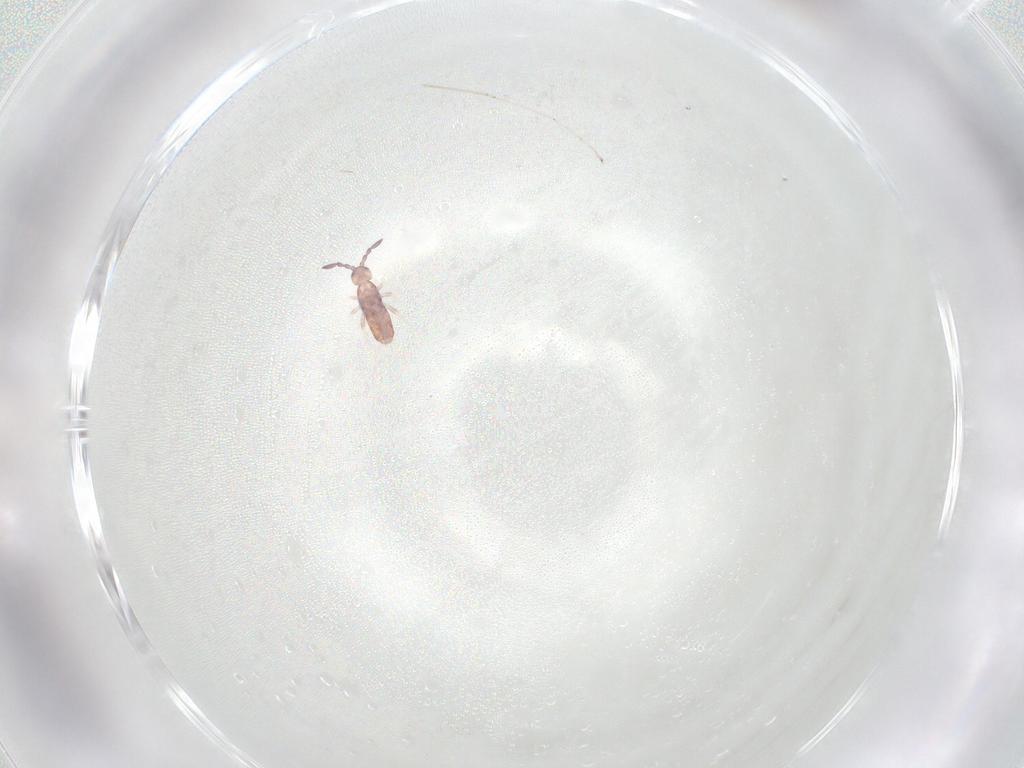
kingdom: Animalia
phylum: Arthropoda
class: Collembola
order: Entomobryomorpha
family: Entomobryidae
